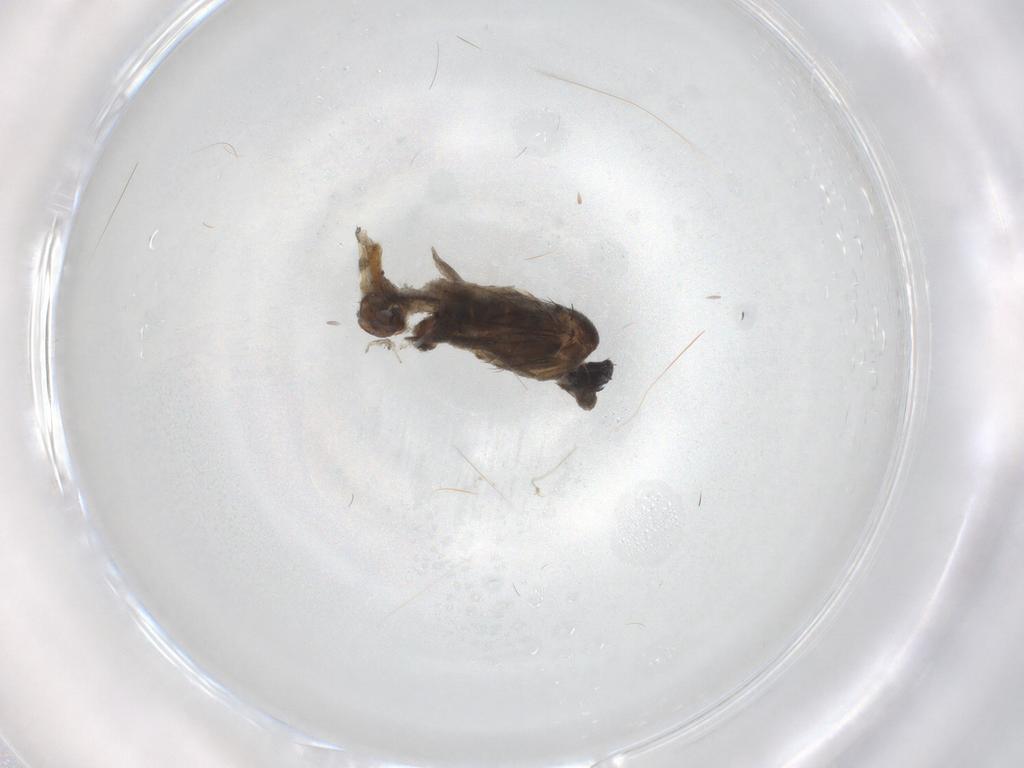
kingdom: Animalia
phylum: Arthropoda
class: Insecta
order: Diptera
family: Phoridae
